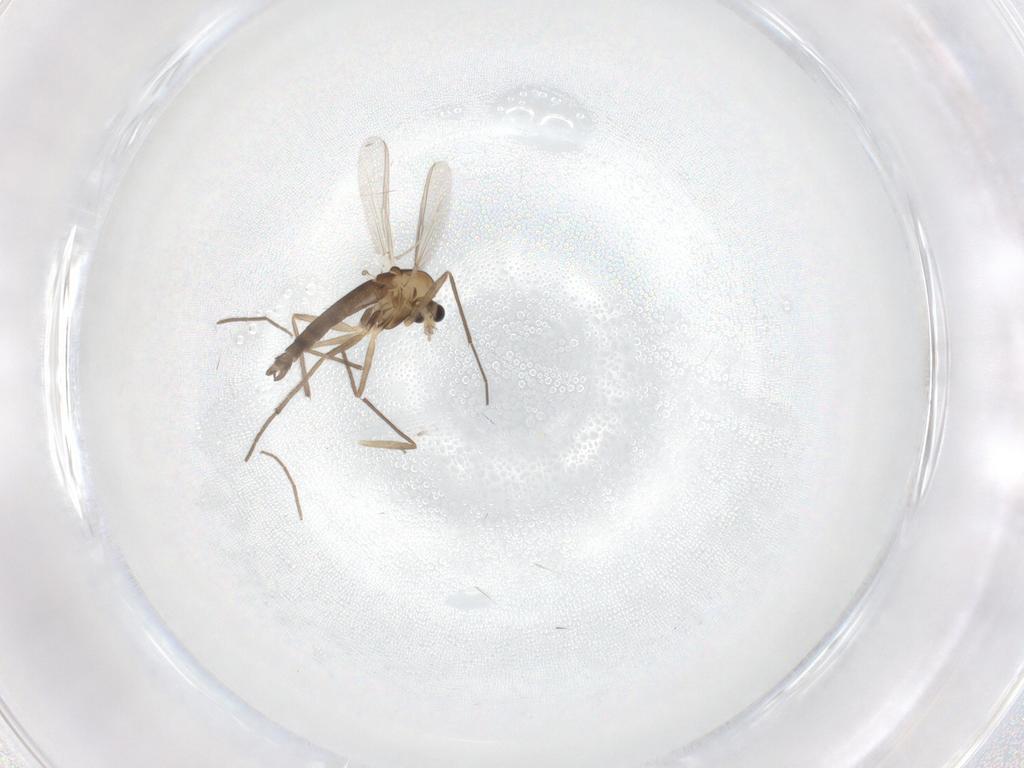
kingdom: Animalia
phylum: Arthropoda
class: Insecta
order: Diptera
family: Chironomidae
